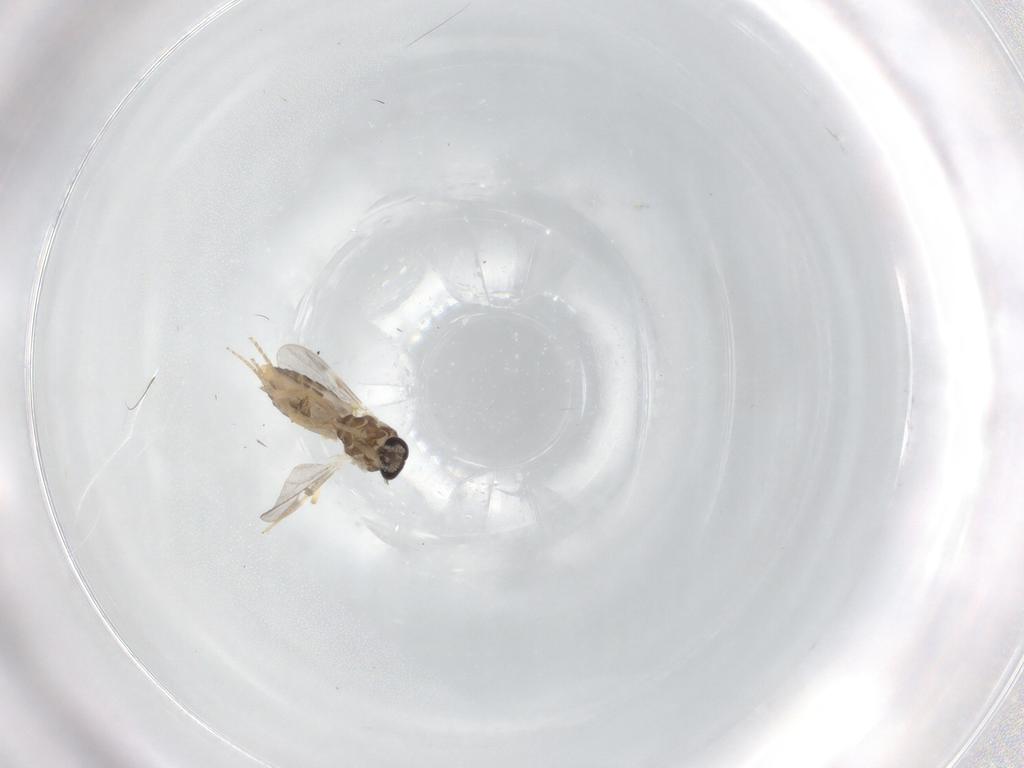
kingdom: Animalia
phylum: Arthropoda
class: Insecta
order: Diptera
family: Ceratopogonidae
